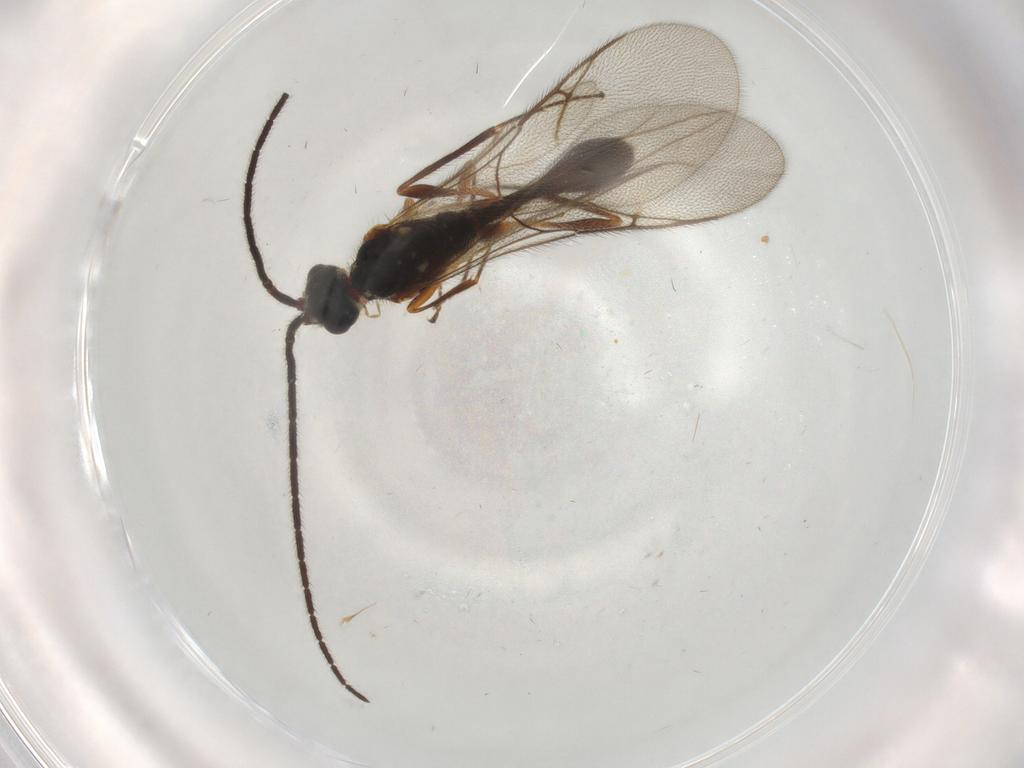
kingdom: Animalia
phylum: Arthropoda
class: Insecta
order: Hymenoptera
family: Diapriidae
